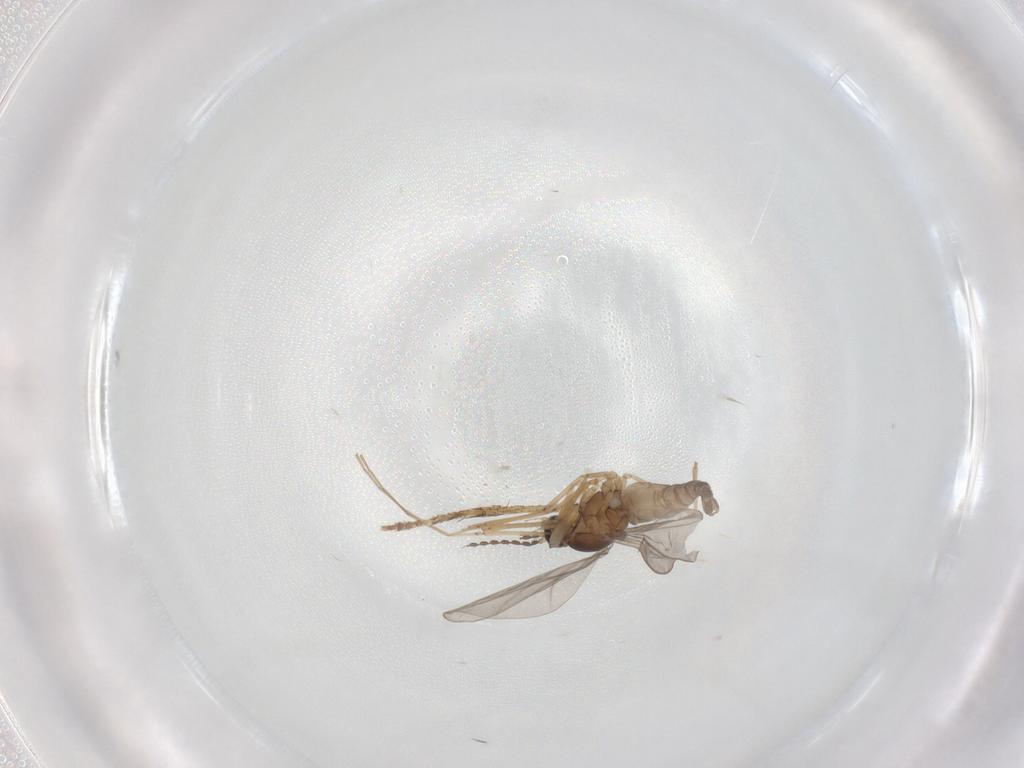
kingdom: Animalia
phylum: Arthropoda
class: Insecta
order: Diptera
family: Psychodidae
